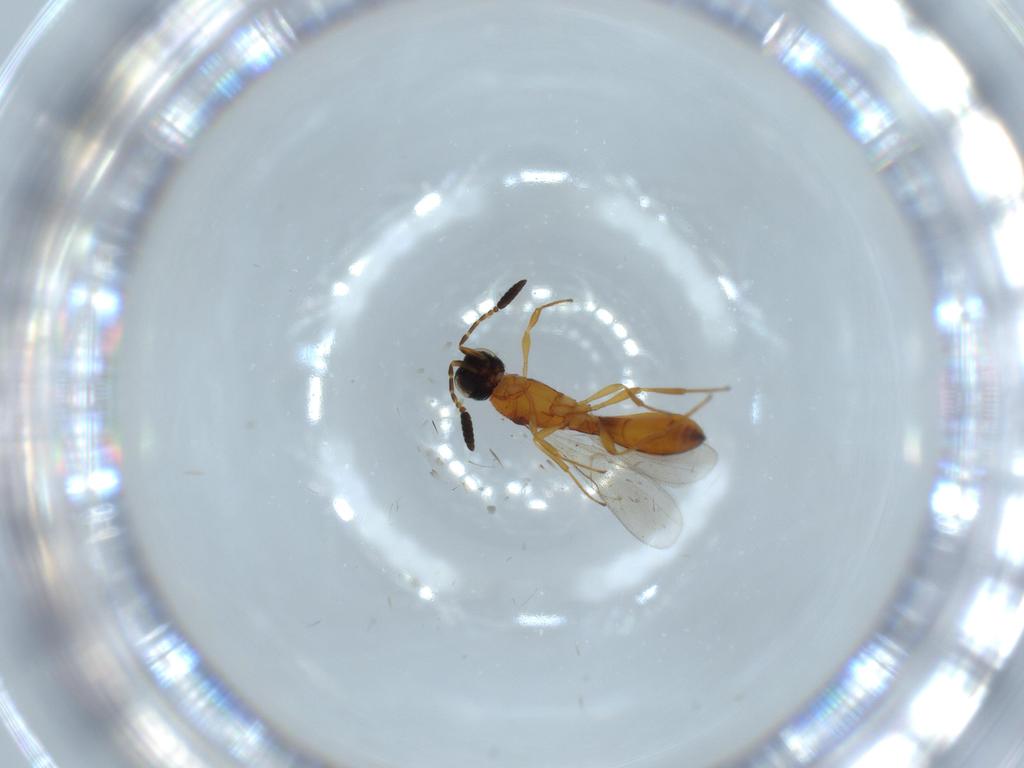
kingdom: Animalia
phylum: Arthropoda
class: Insecta
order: Hymenoptera
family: Scelionidae
